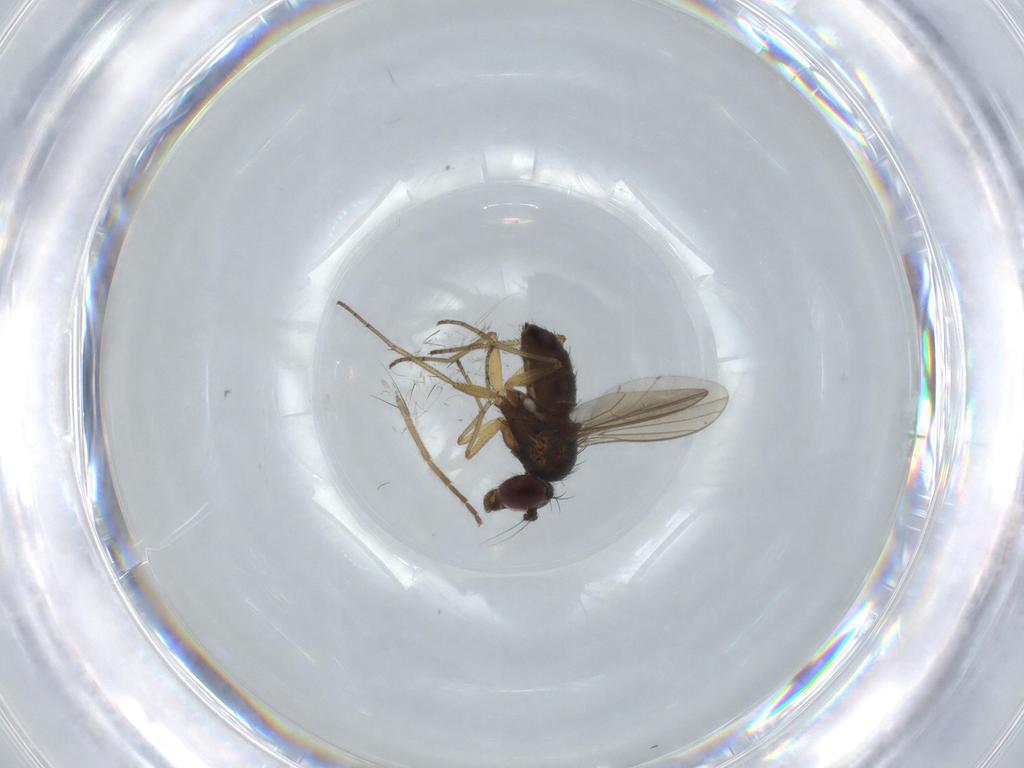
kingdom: Animalia
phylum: Arthropoda
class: Insecta
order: Diptera
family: Dolichopodidae
